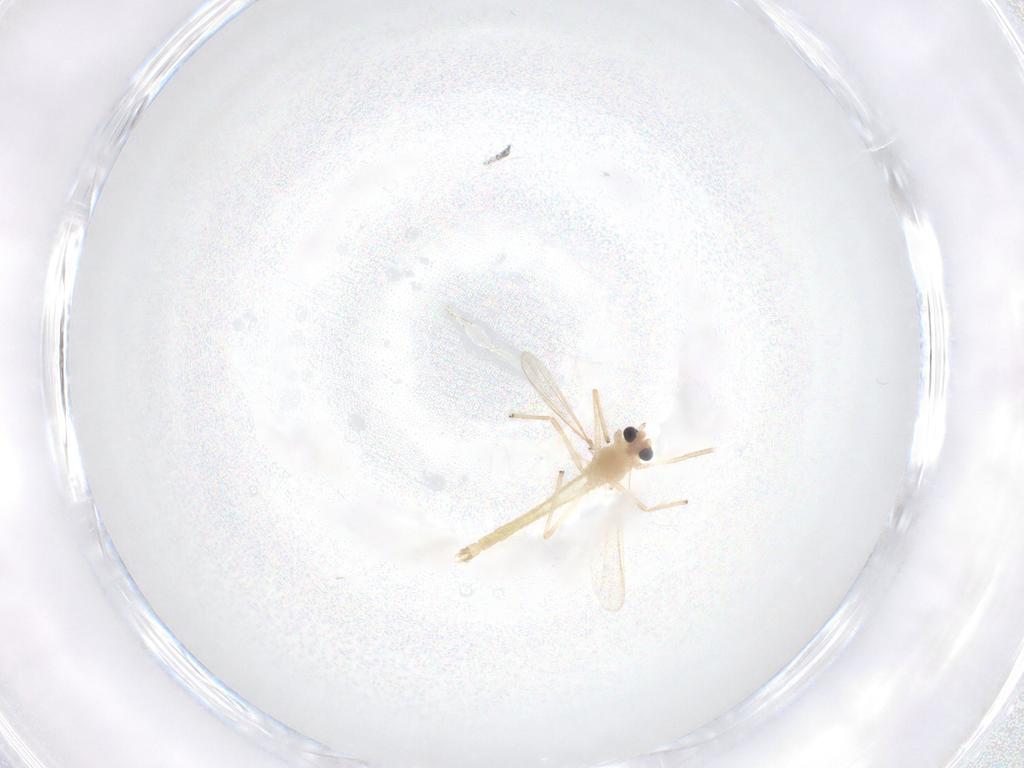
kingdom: Animalia
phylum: Arthropoda
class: Insecta
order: Diptera
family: Chironomidae
